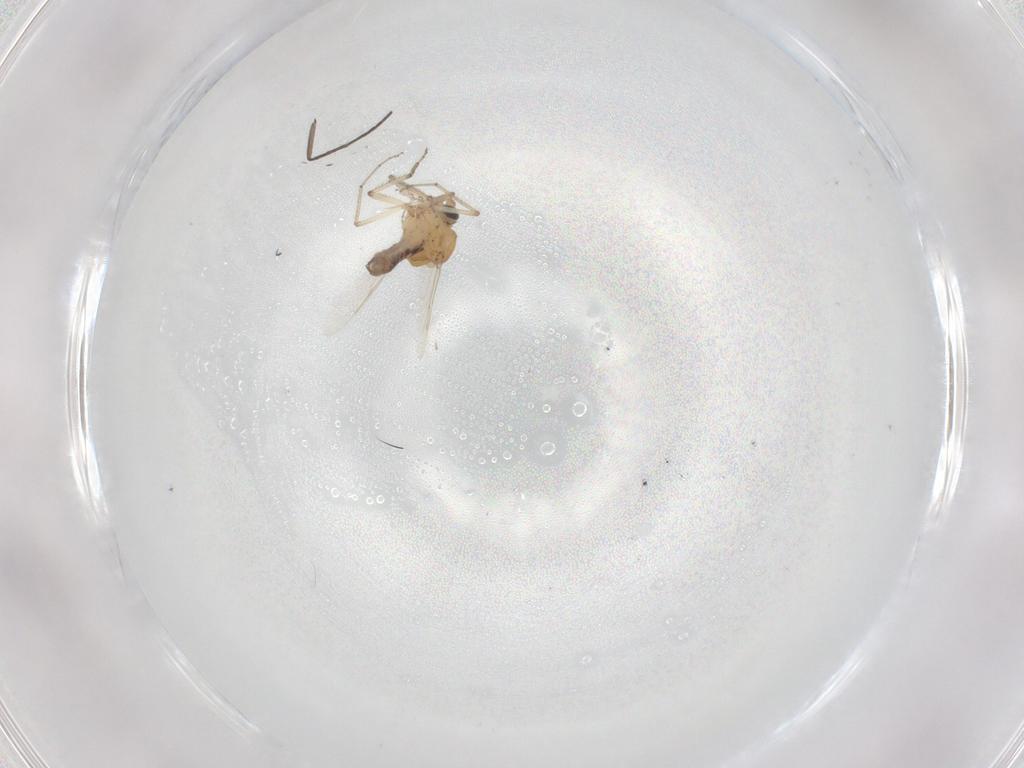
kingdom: Animalia
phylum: Arthropoda
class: Insecta
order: Diptera
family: Ceratopogonidae
